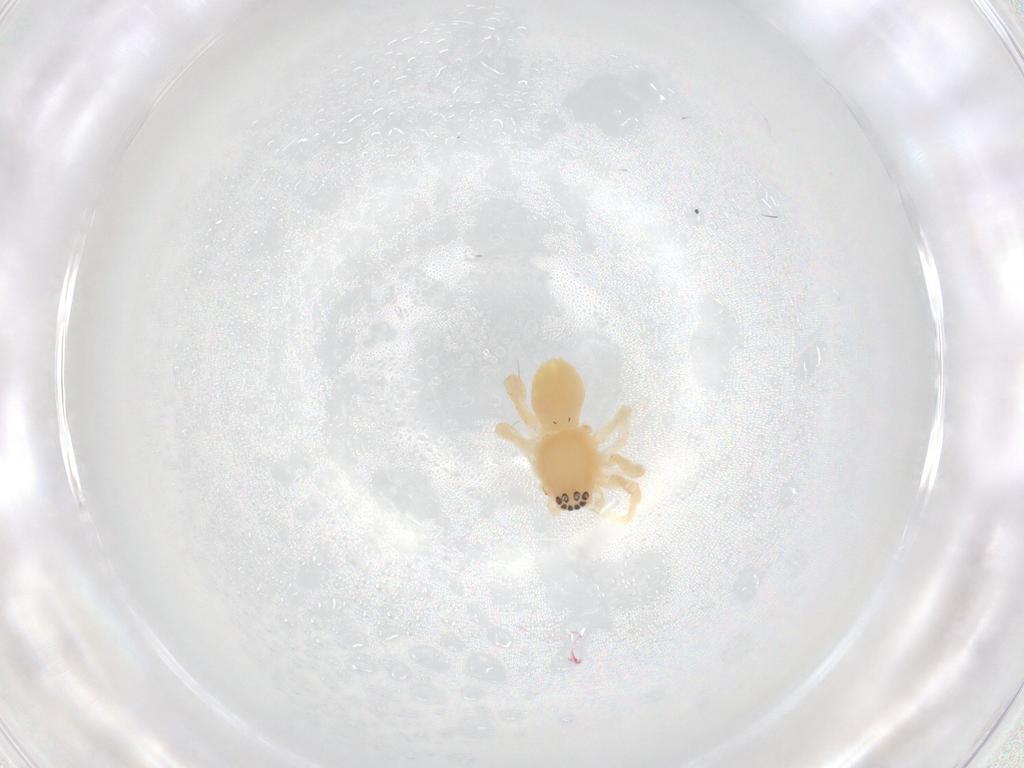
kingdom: Animalia
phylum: Arthropoda
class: Arachnida
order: Araneae
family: Anyphaenidae
